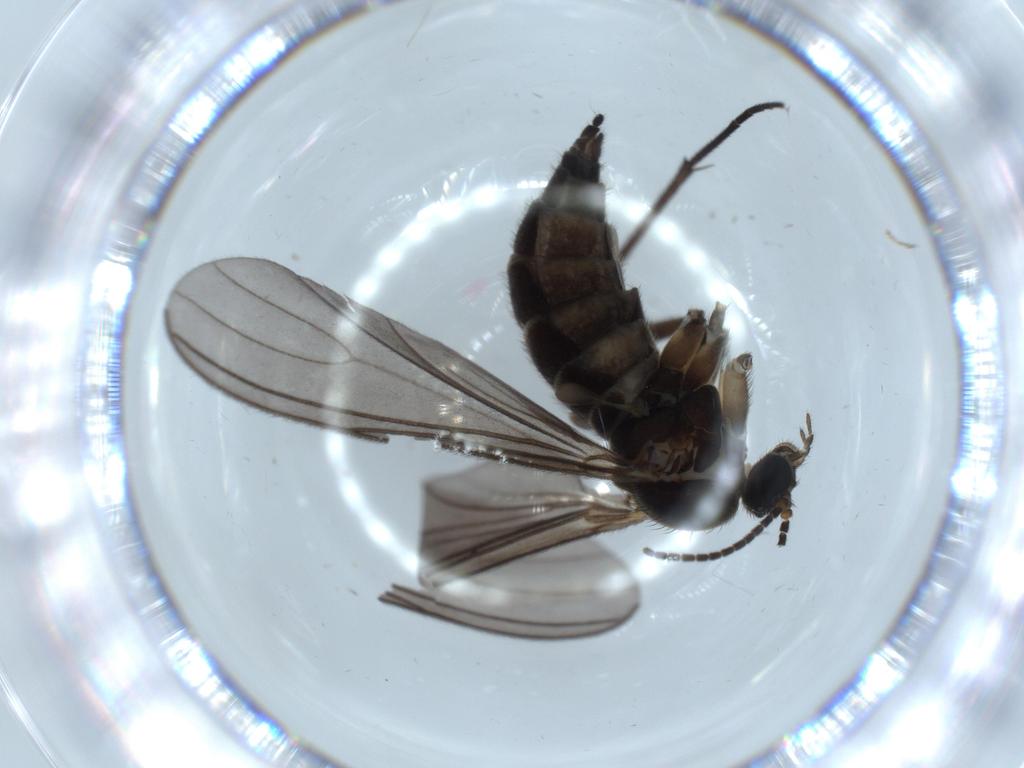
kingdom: Animalia
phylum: Arthropoda
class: Insecta
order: Diptera
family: Sciaridae
